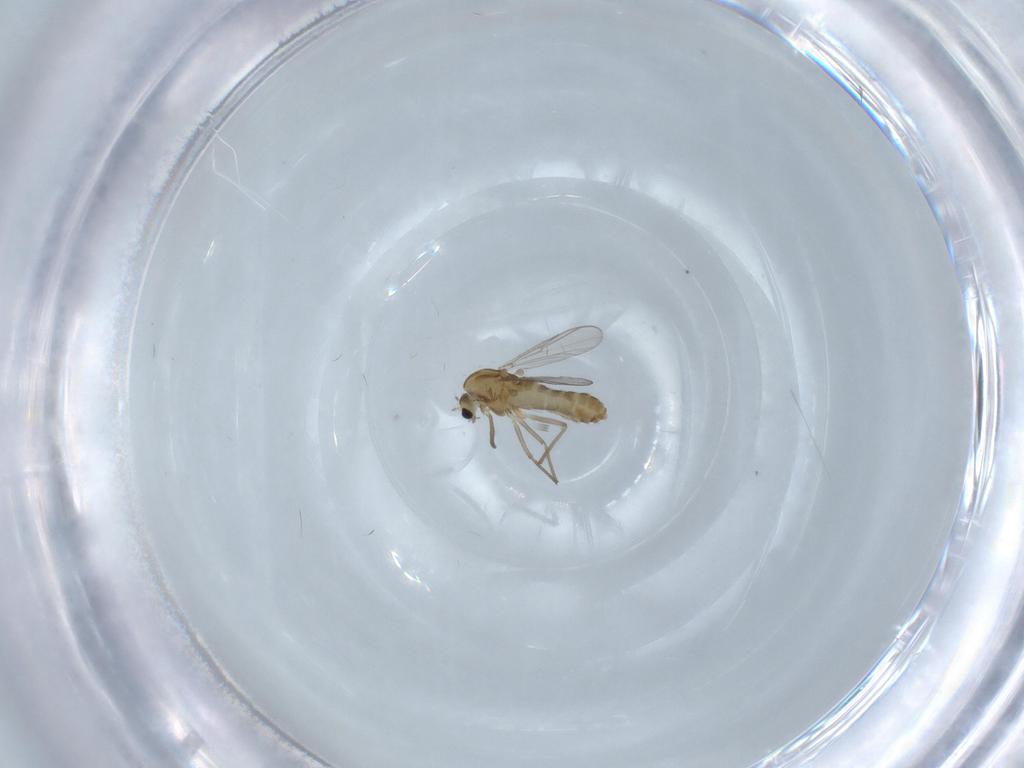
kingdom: Animalia
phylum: Arthropoda
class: Insecta
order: Diptera
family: Chironomidae
